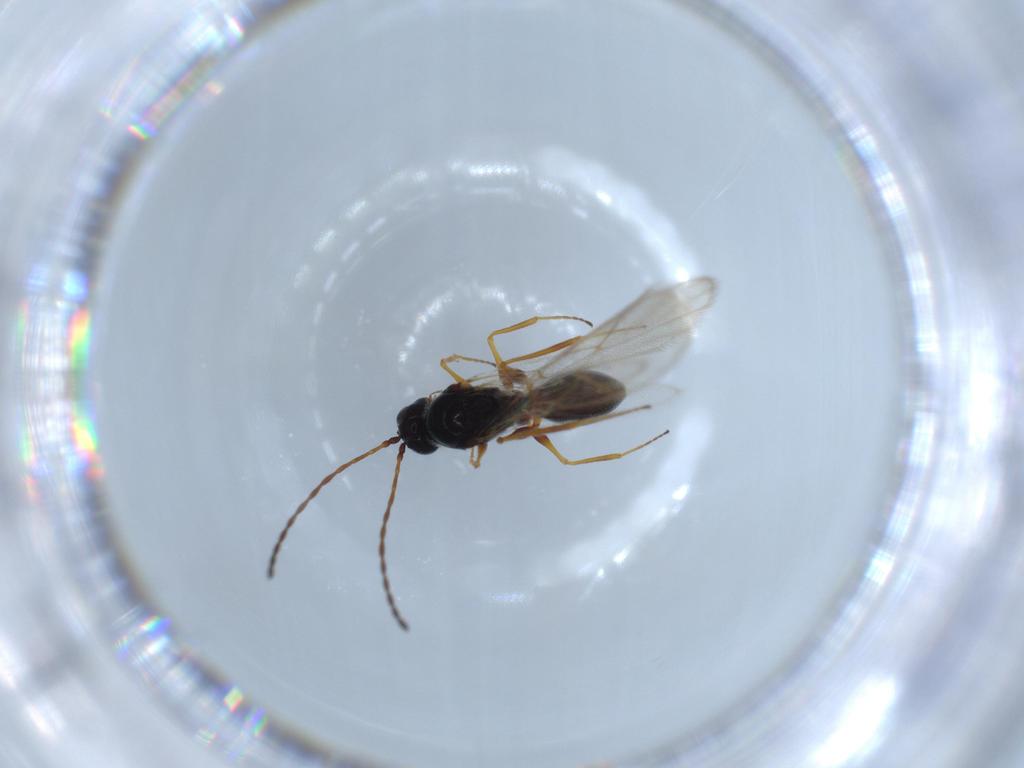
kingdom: Animalia
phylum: Arthropoda
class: Insecta
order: Hymenoptera
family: Figitidae
